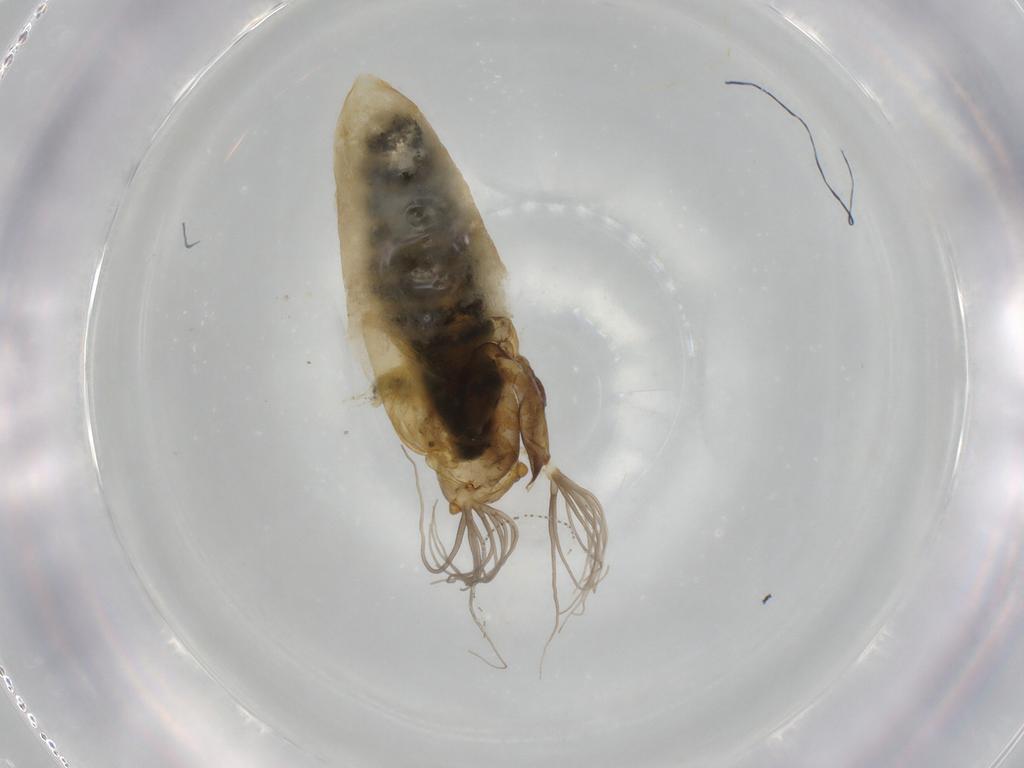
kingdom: Animalia
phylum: Arthropoda
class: Insecta
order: Diptera
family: Empididae
